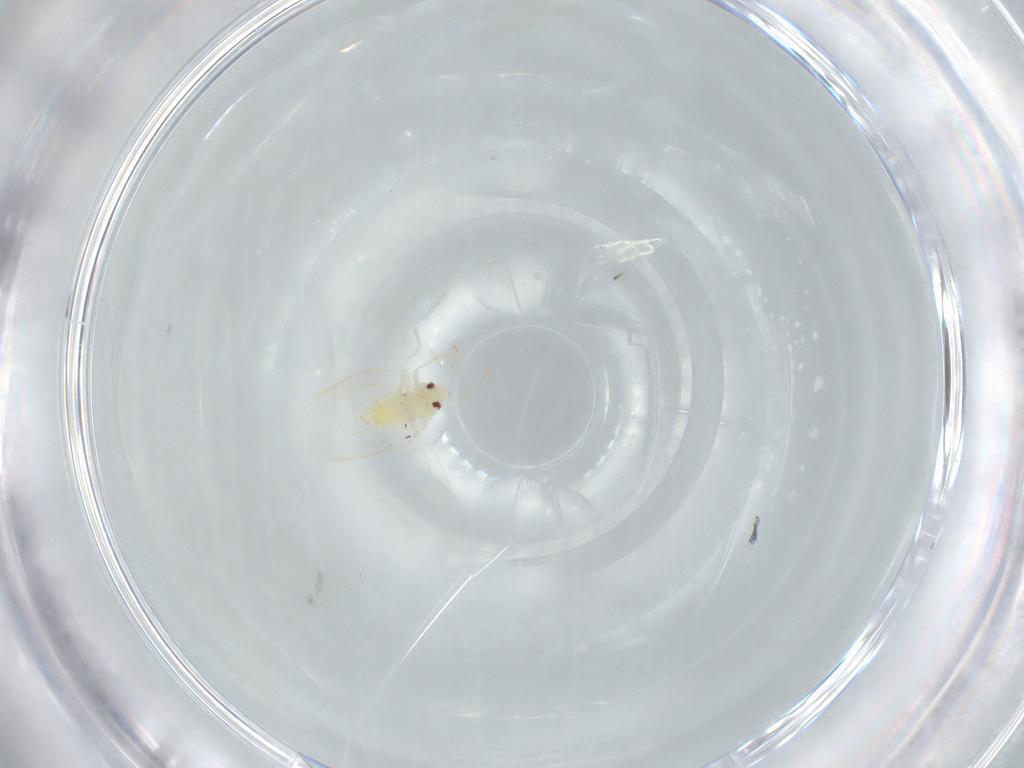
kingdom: Animalia
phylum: Arthropoda
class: Insecta
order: Hemiptera
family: Aleyrodidae
